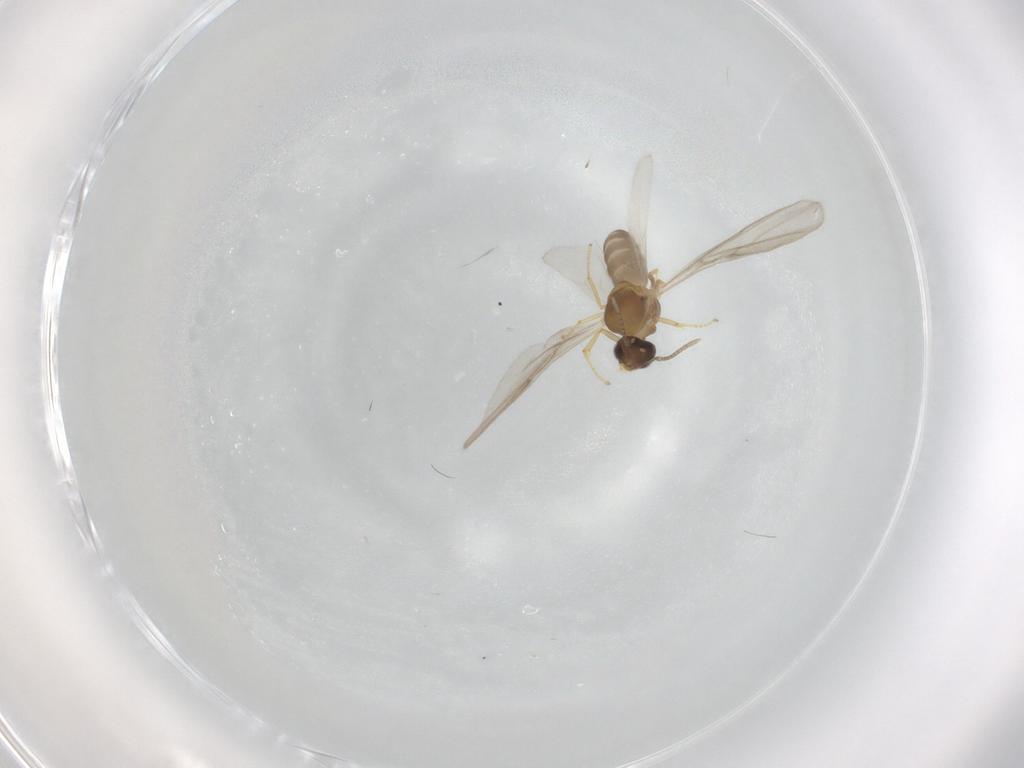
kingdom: Animalia
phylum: Arthropoda
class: Insecta
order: Hymenoptera
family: Formicidae
